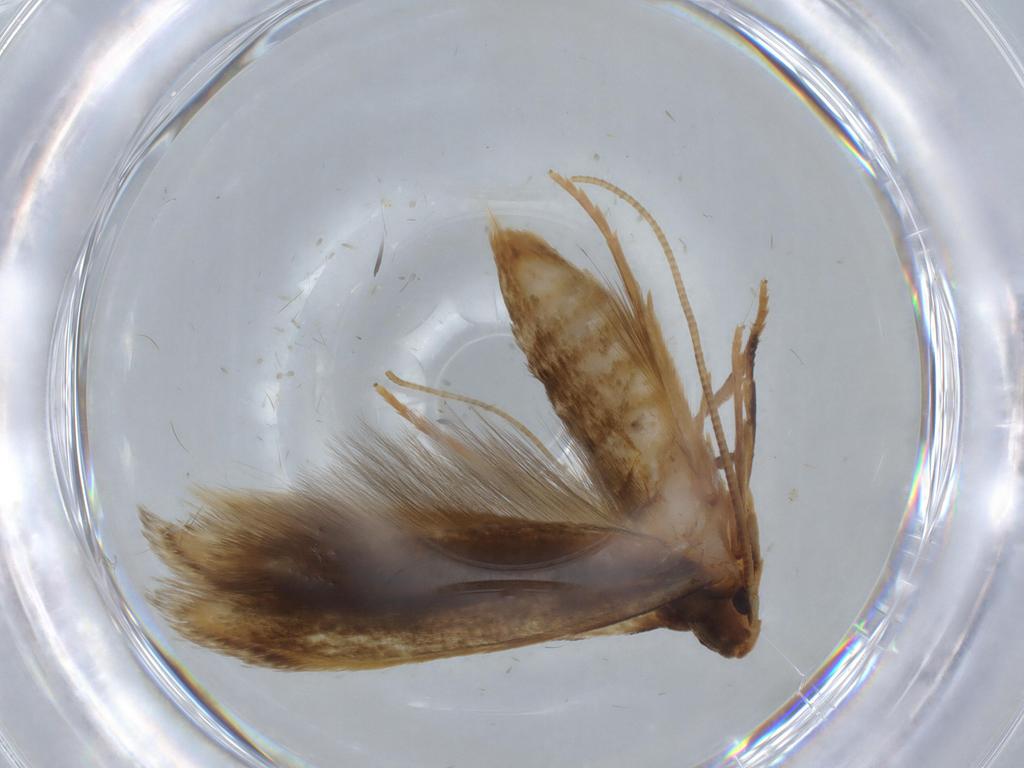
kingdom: Animalia
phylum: Arthropoda
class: Insecta
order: Lepidoptera
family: Tineidae
